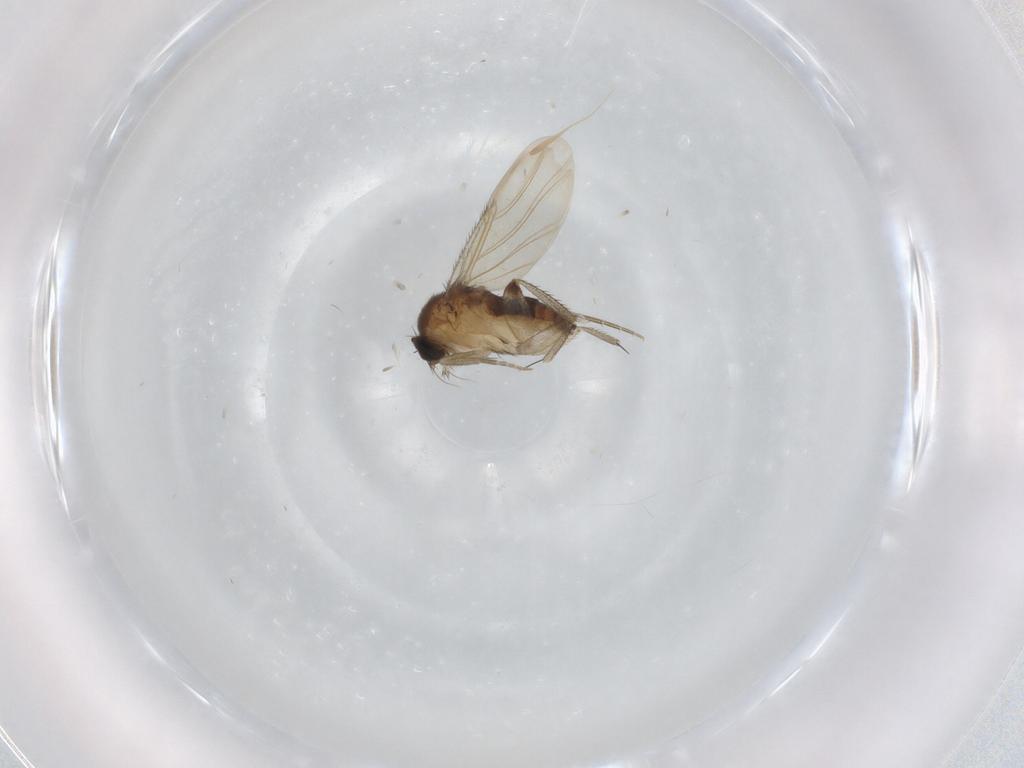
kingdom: Animalia
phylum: Arthropoda
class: Insecta
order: Diptera
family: Phoridae
